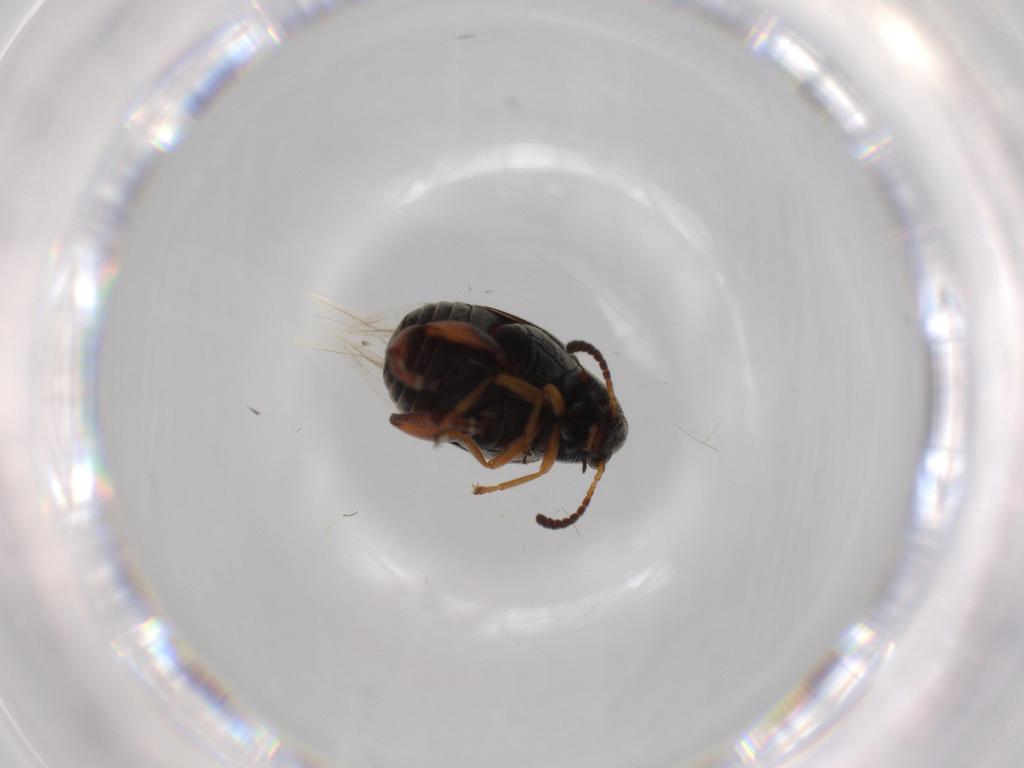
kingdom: Animalia
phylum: Arthropoda
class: Insecta
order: Coleoptera
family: Chrysomelidae
